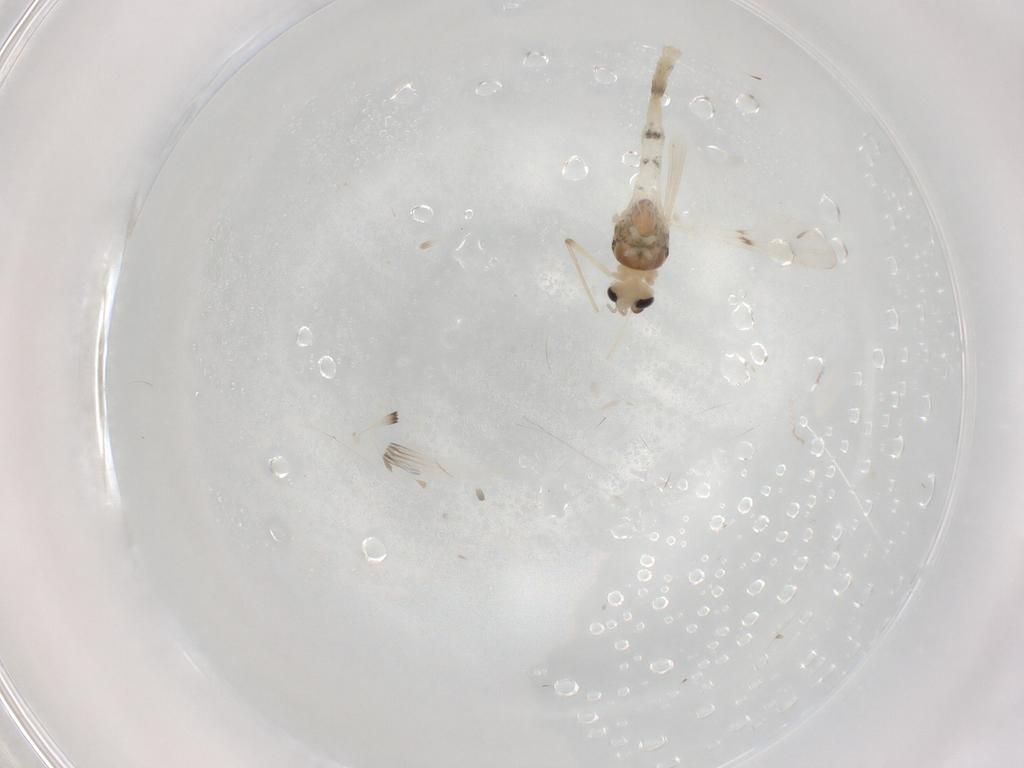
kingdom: Animalia
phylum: Arthropoda
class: Insecta
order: Diptera
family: Chironomidae
